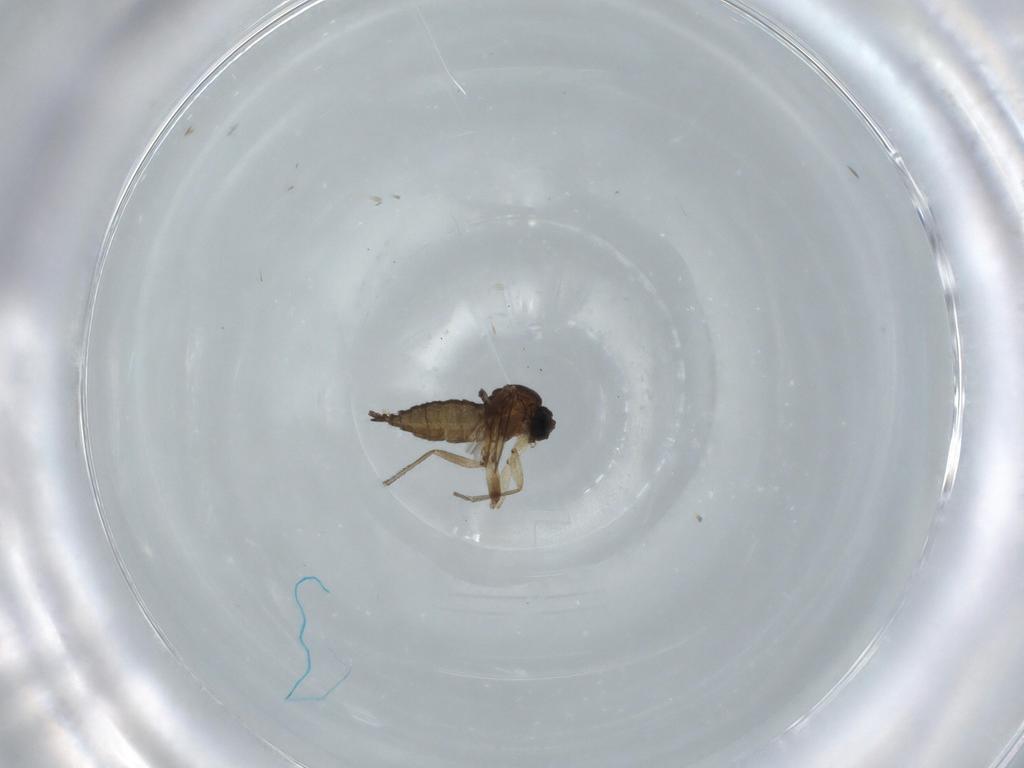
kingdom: Animalia
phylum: Arthropoda
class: Insecta
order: Diptera
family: Sciaridae
